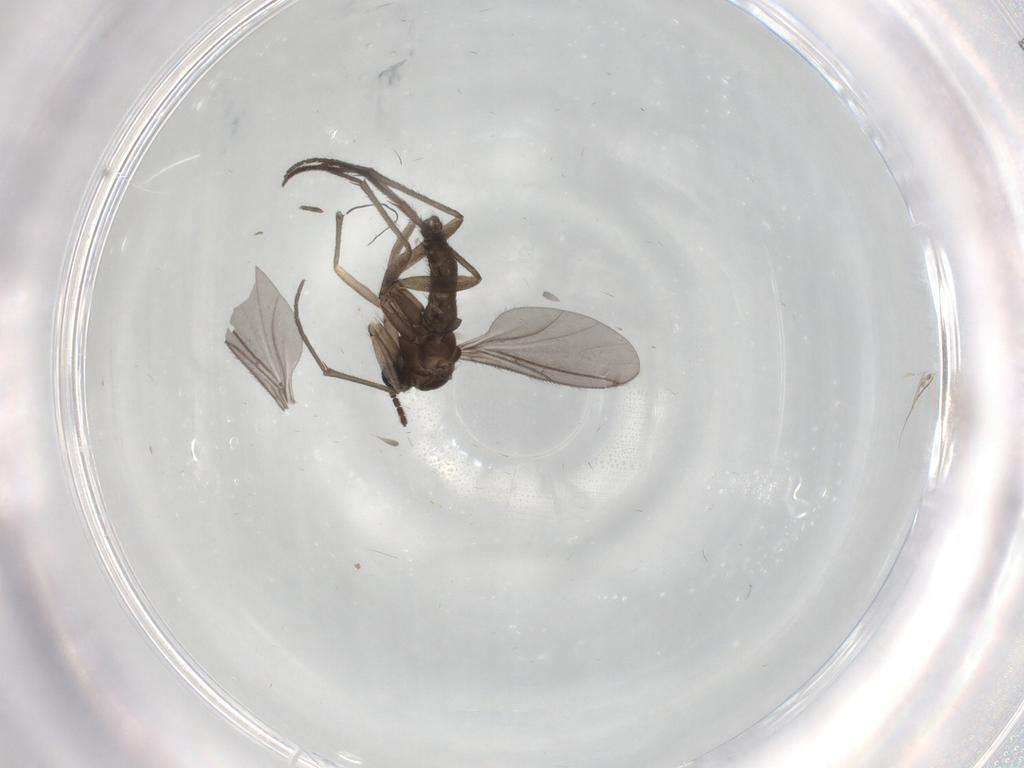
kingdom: Animalia
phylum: Arthropoda
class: Insecta
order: Diptera
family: Sciaridae
